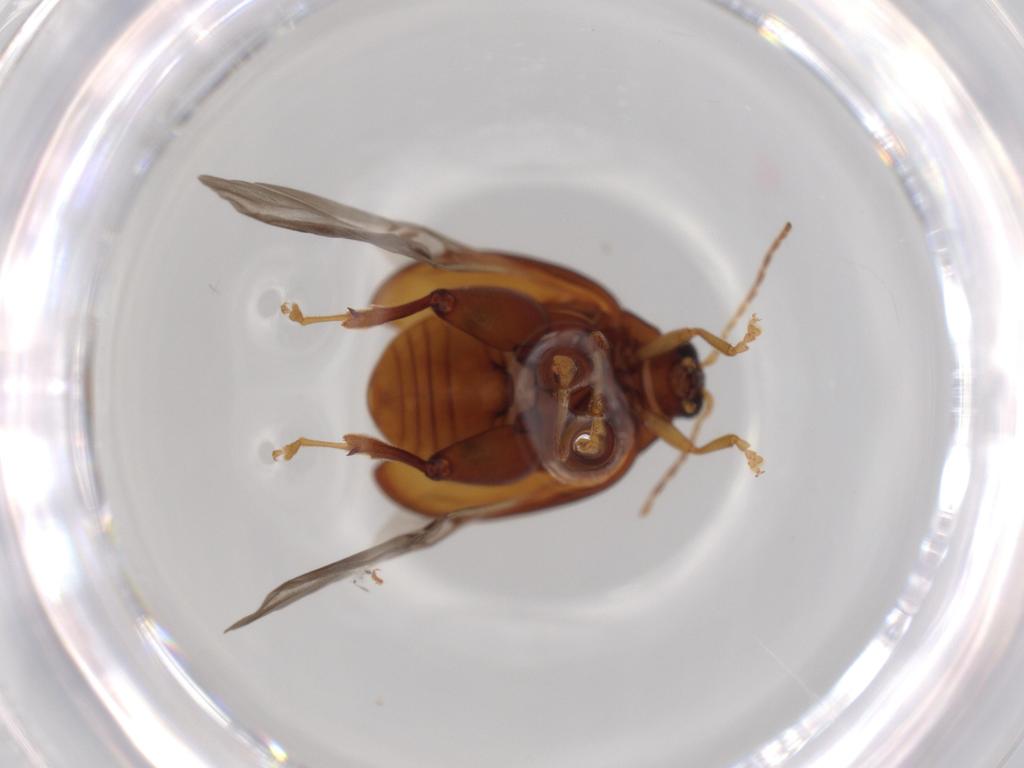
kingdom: Animalia
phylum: Arthropoda
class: Insecta
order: Coleoptera
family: Chrysomelidae
